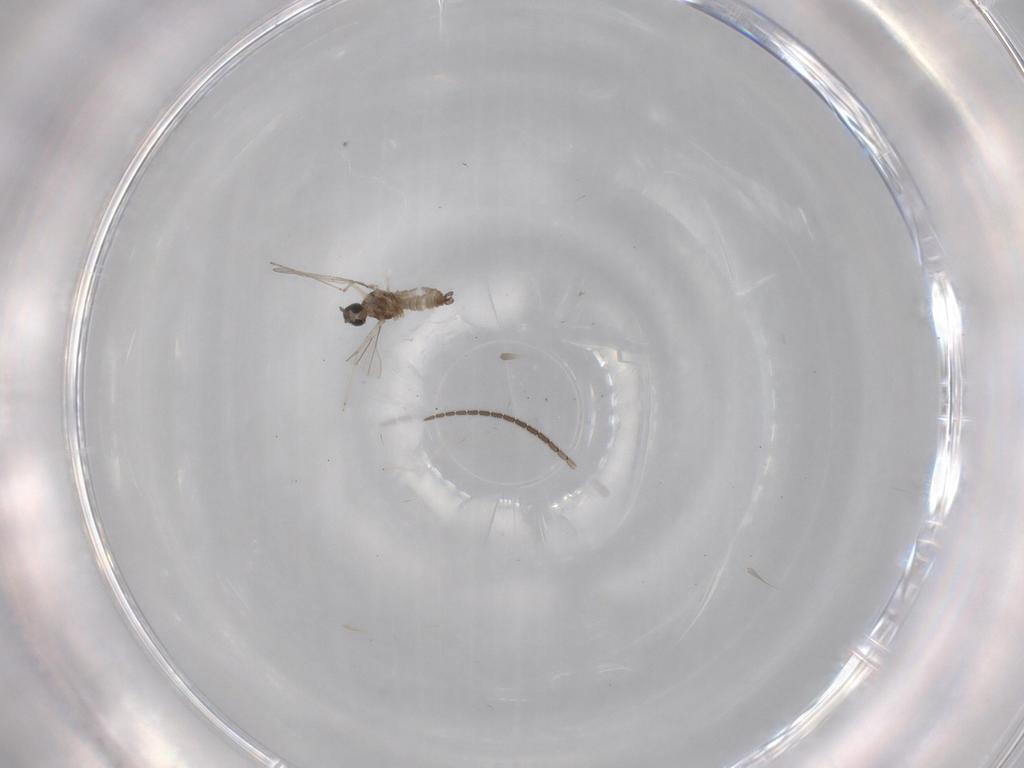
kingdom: Animalia
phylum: Arthropoda
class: Insecta
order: Diptera
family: Sciaridae
